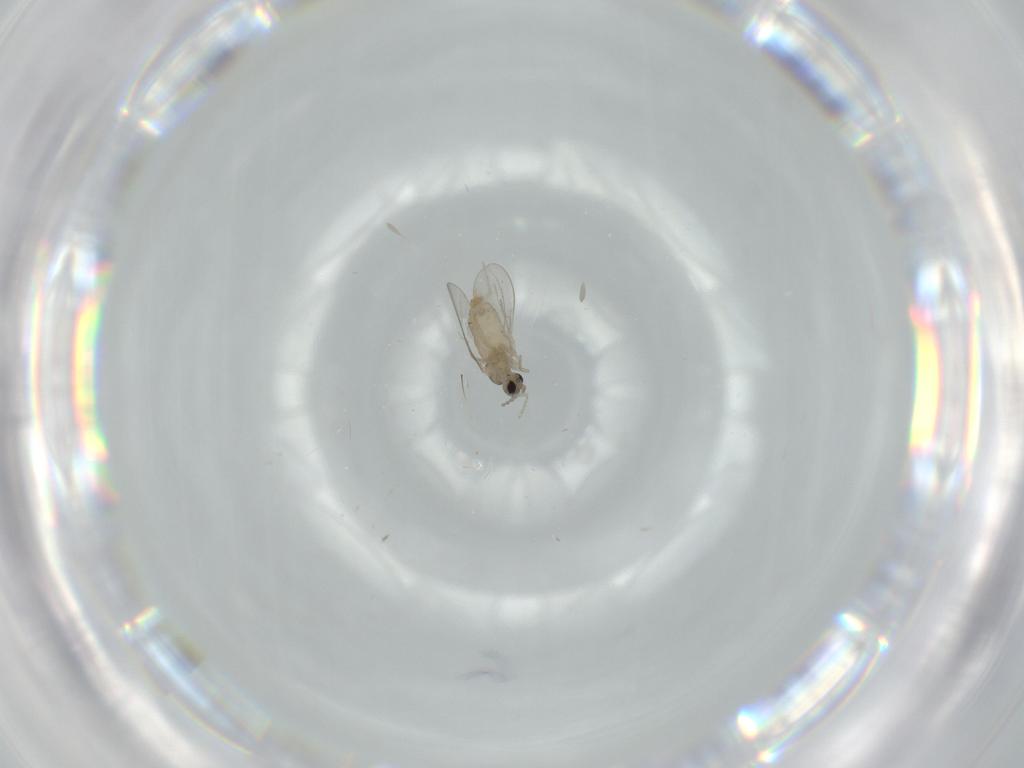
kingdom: Animalia
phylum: Arthropoda
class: Insecta
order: Diptera
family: Cecidomyiidae
